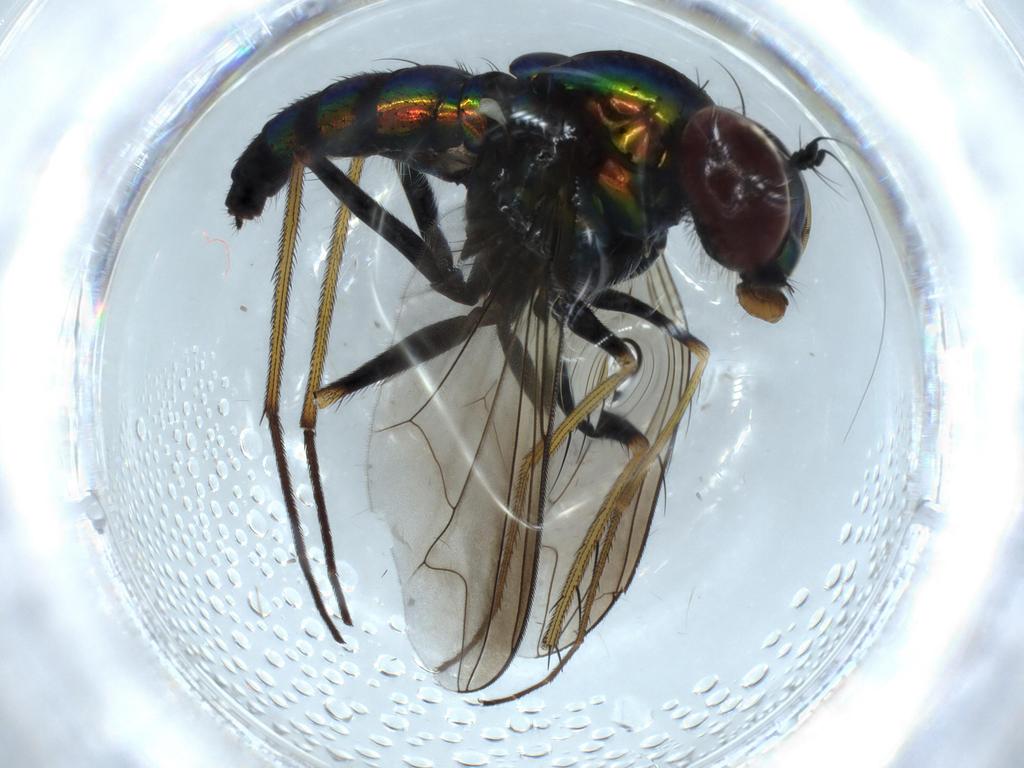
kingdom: Animalia
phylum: Arthropoda
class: Insecta
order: Diptera
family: Dolichopodidae
